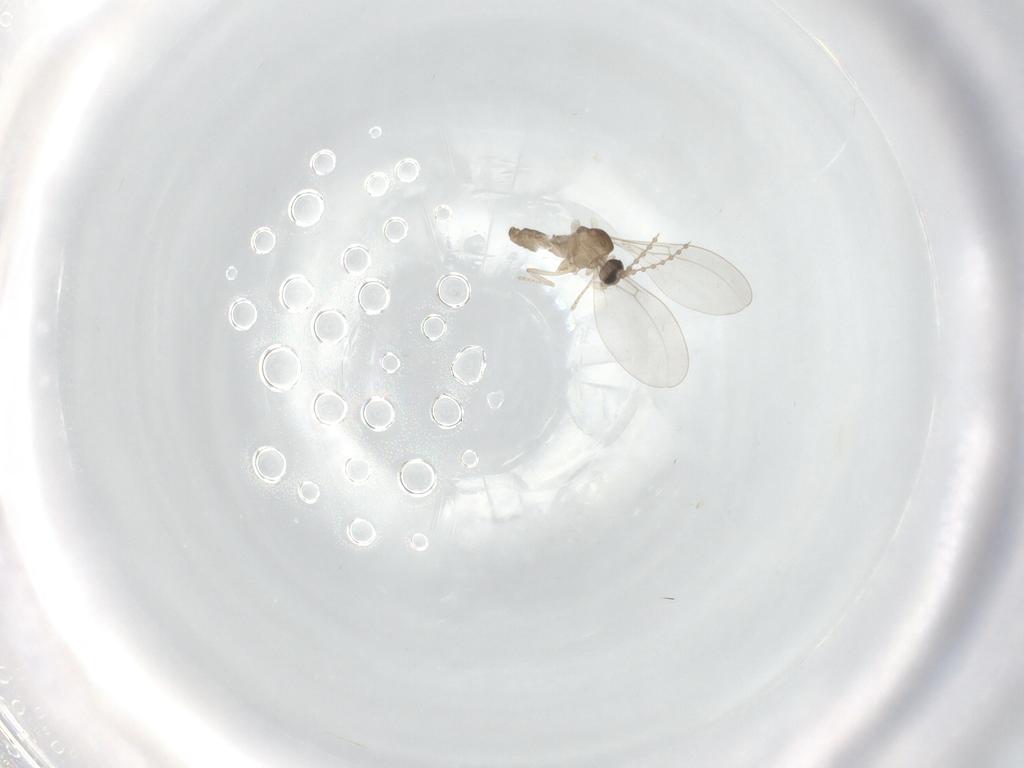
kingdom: Animalia
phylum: Arthropoda
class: Insecta
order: Diptera
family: Cecidomyiidae
